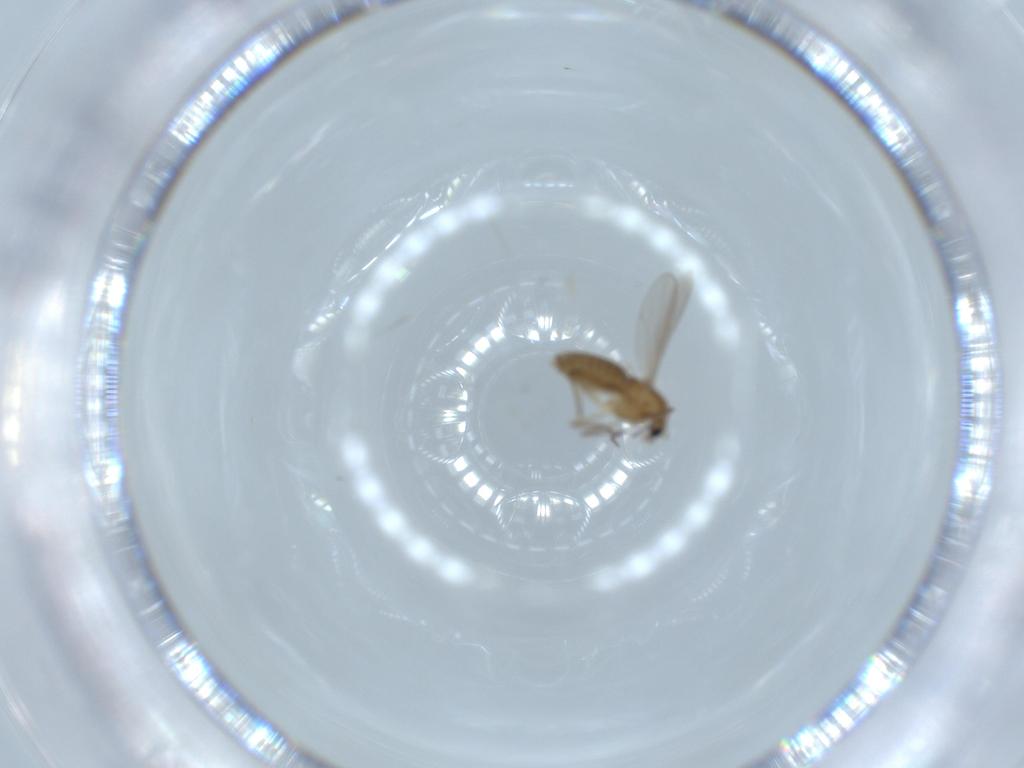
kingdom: Animalia
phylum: Arthropoda
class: Insecta
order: Diptera
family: Chironomidae
